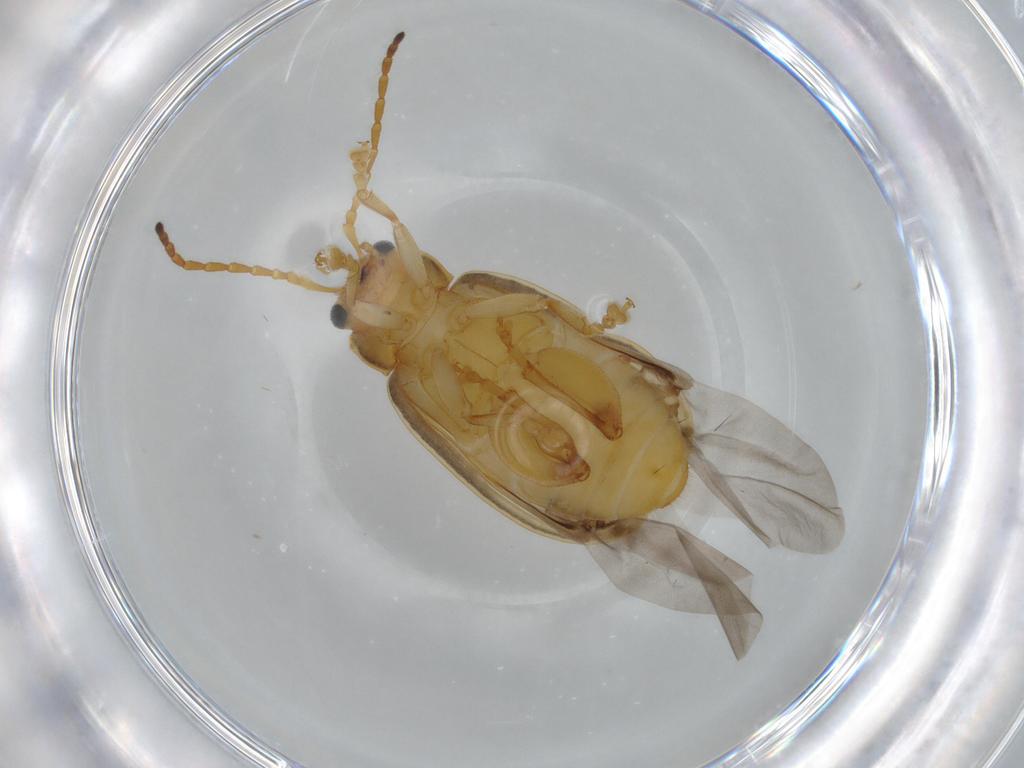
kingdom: Animalia
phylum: Arthropoda
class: Insecta
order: Coleoptera
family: Chrysomelidae
